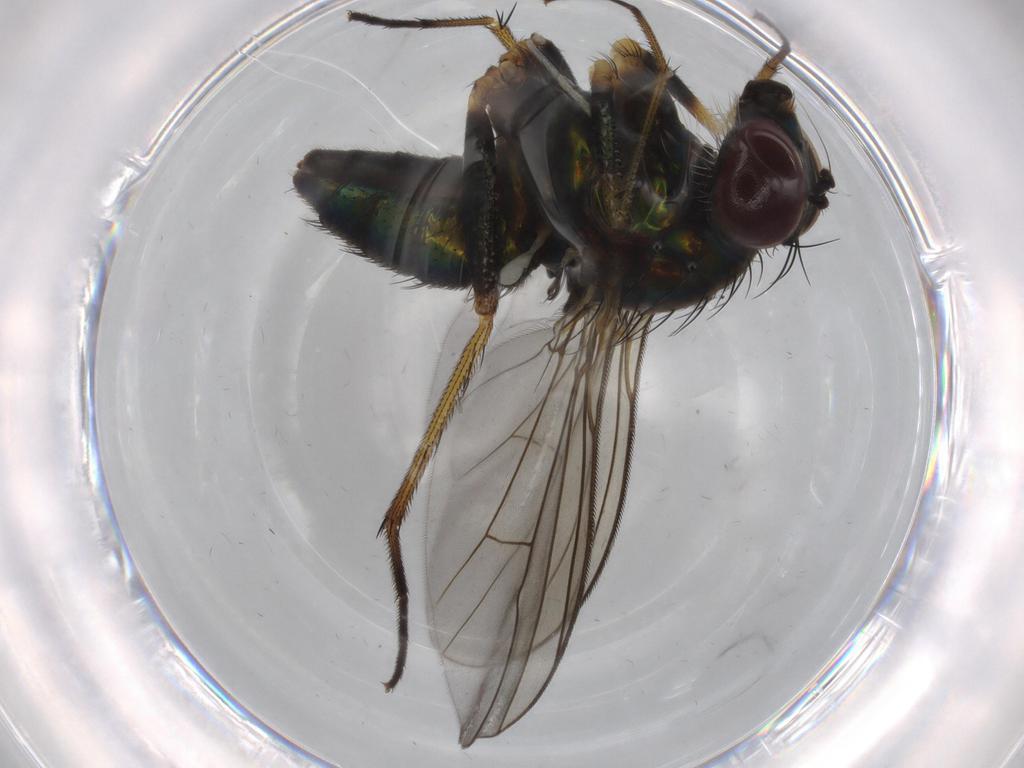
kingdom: Animalia
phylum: Arthropoda
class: Insecta
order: Diptera
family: Dolichopodidae
